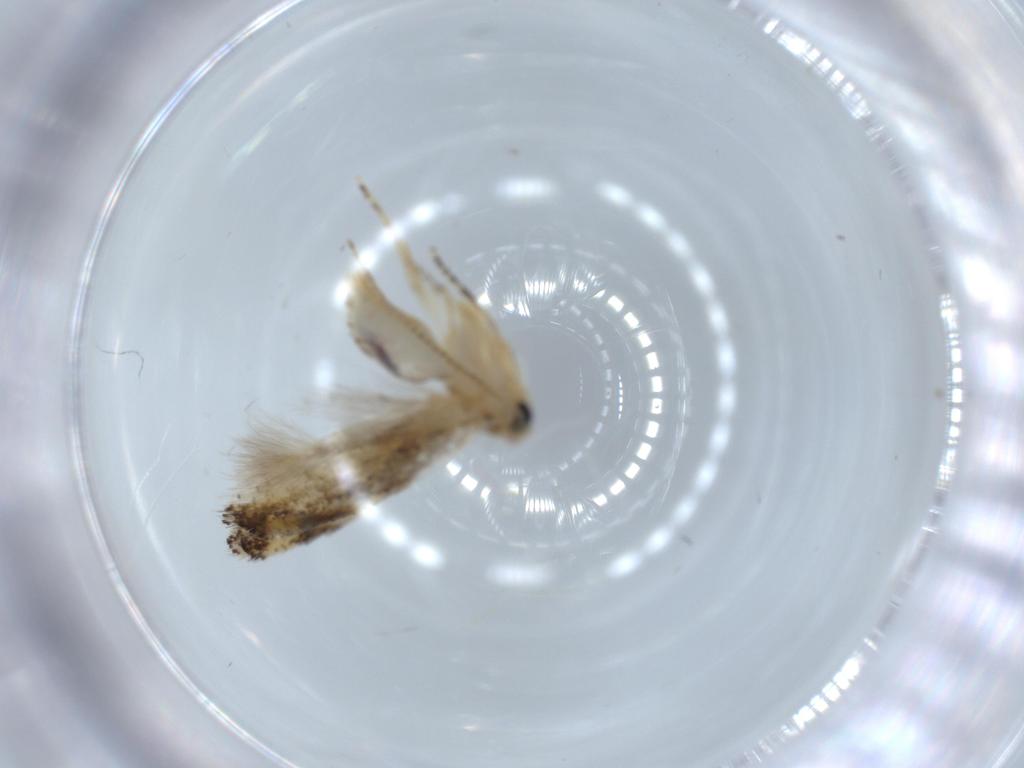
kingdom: Animalia
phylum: Arthropoda
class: Insecta
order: Lepidoptera
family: Bucculatricidae
